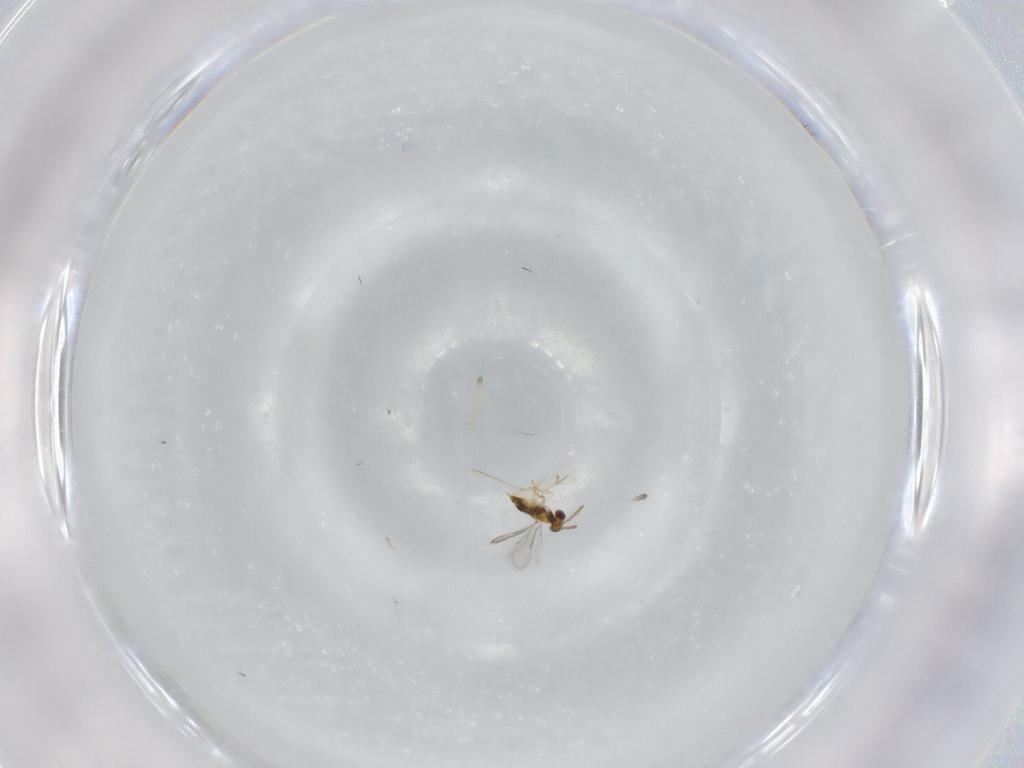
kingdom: Animalia
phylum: Arthropoda
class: Insecta
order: Hymenoptera
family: Aphelinidae
